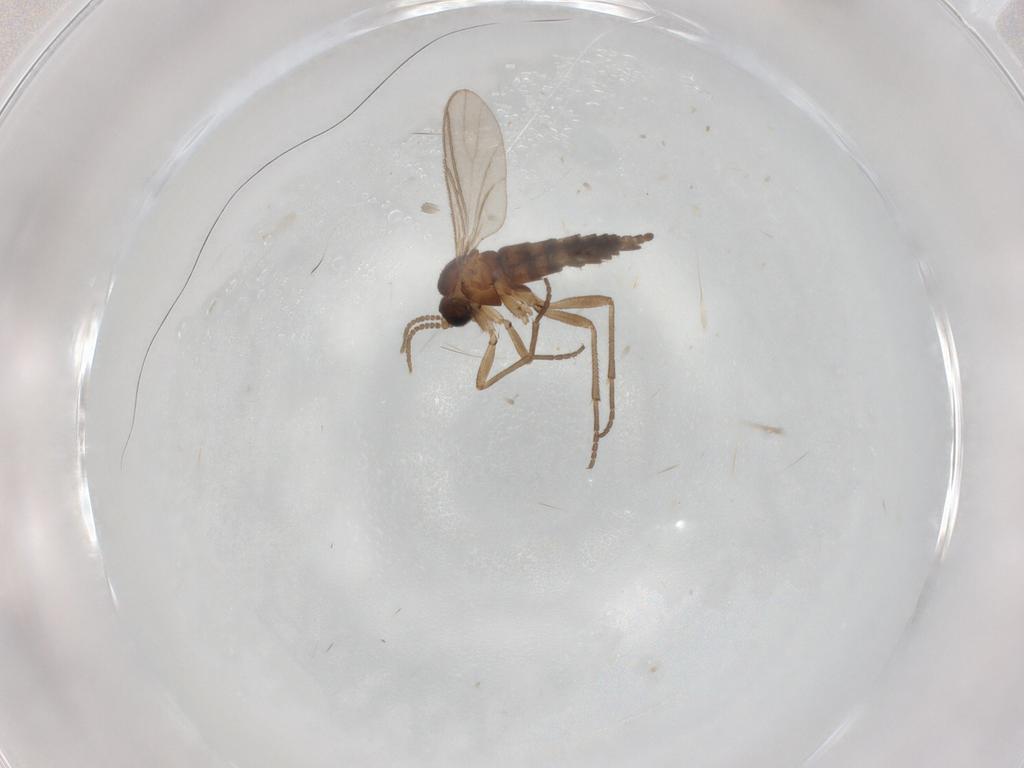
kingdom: Animalia
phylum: Arthropoda
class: Insecta
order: Diptera
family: Sciaridae
